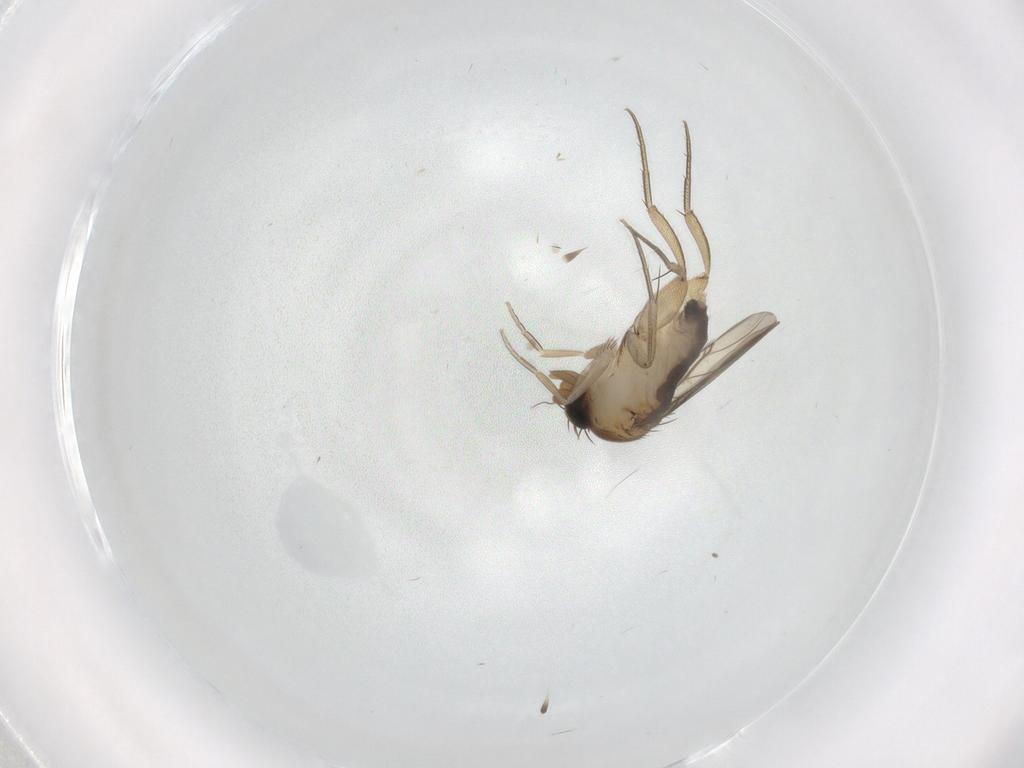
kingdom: Animalia
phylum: Arthropoda
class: Insecta
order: Diptera
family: Phoridae
